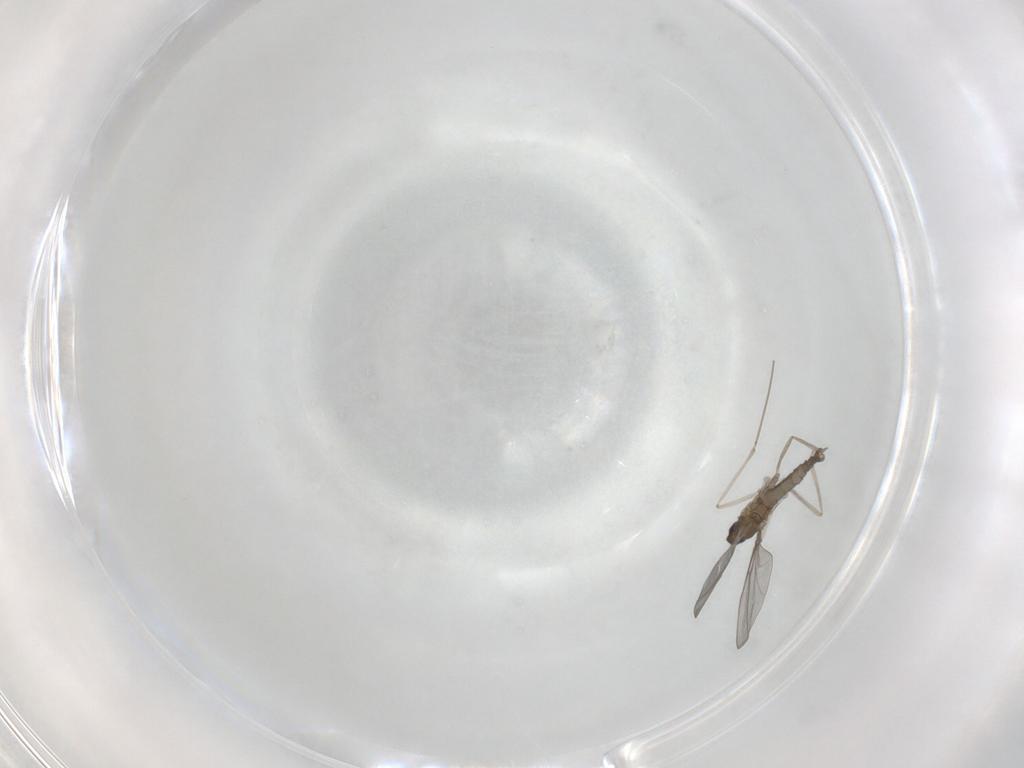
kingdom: Animalia
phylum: Arthropoda
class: Insecta
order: Diptera
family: Cecidomyiidae
